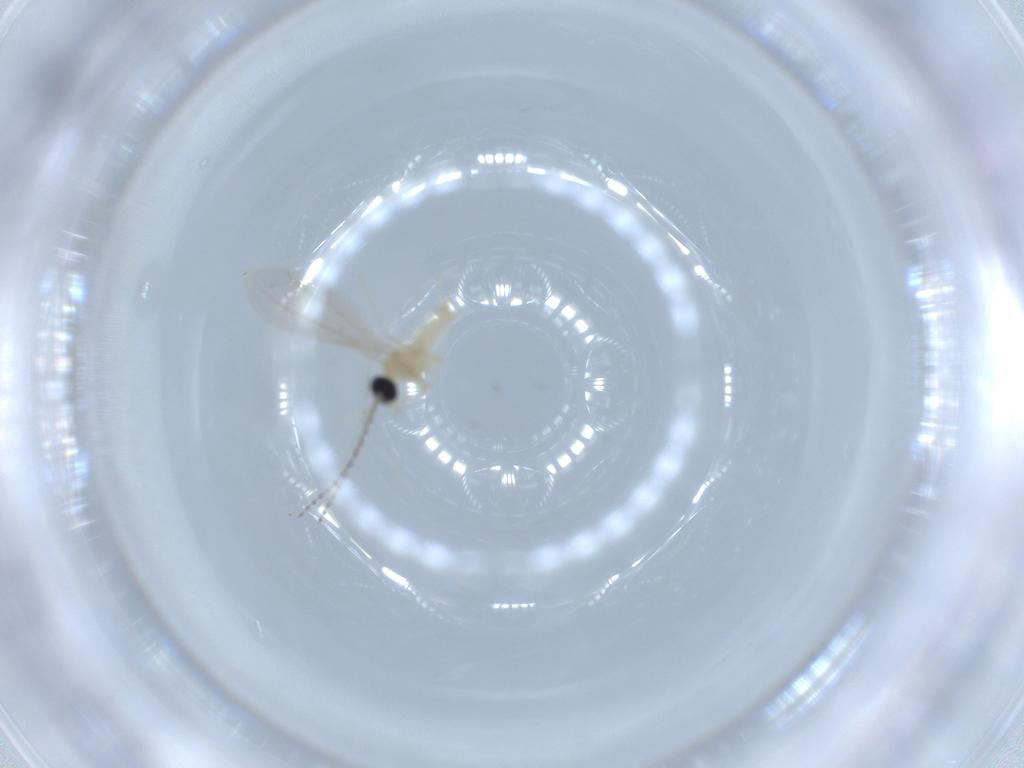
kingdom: Animalia
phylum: Arthropoda
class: Insecta
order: Diptera
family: Cecidomyiidae
